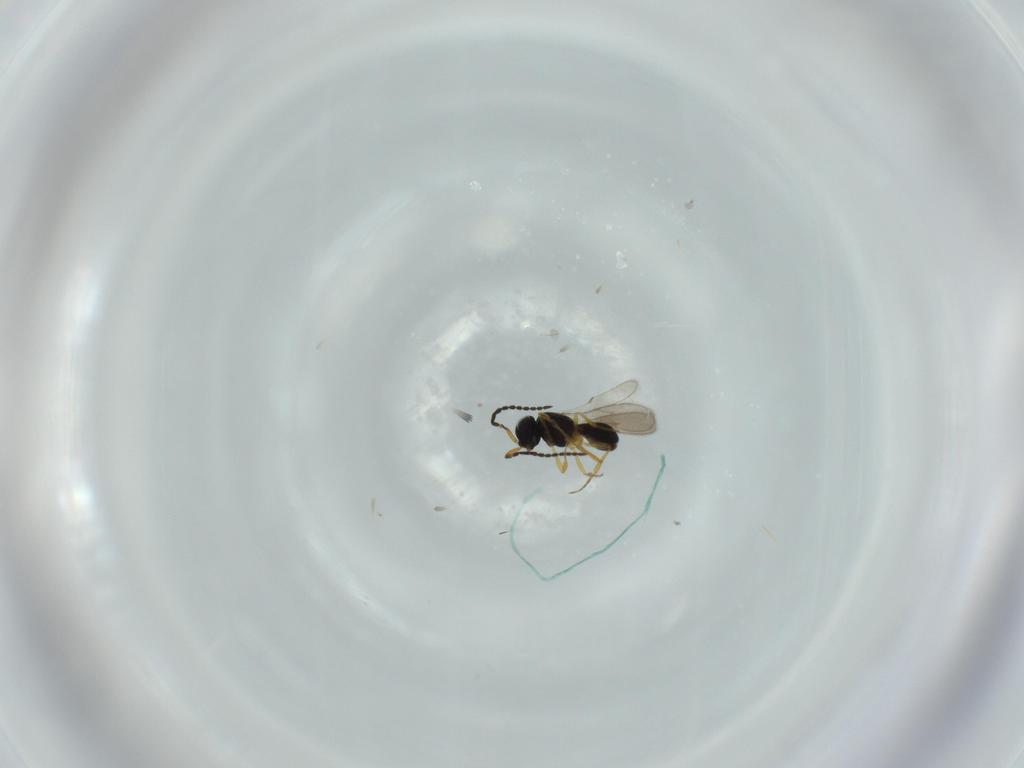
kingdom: Animalia
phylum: Arthropoda
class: Insecta
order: Hymenoptera
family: Scelionidae
